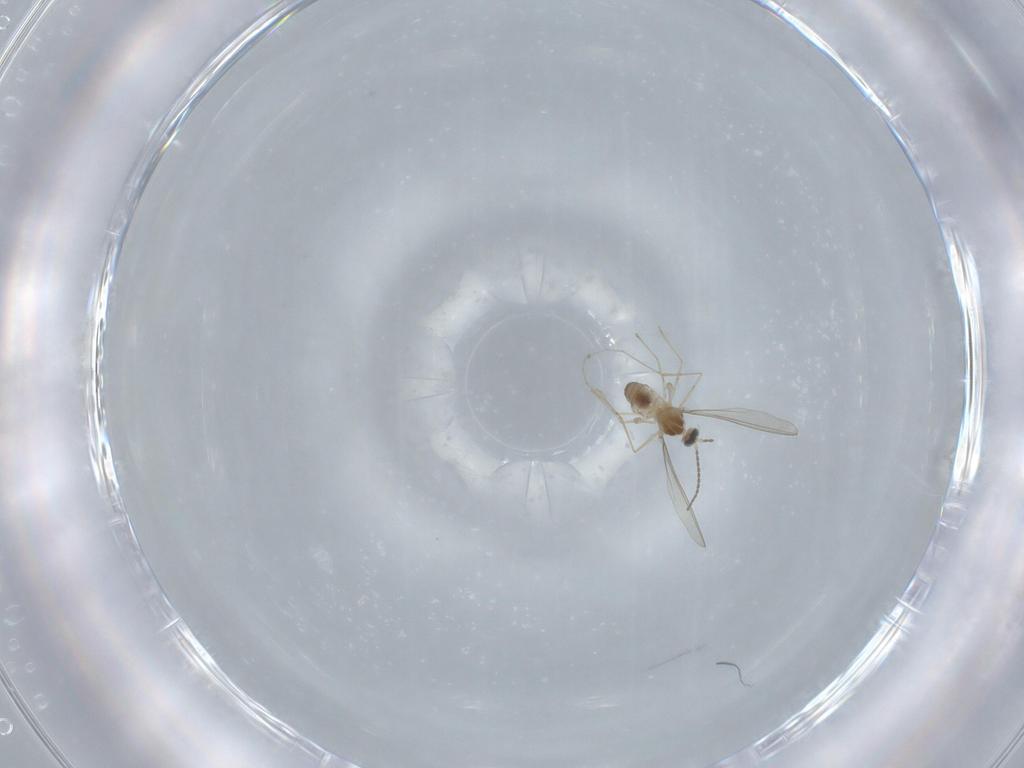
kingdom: Animalia
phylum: Arthropoda
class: Insecta
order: Diptera
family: Cecidomyiidae
